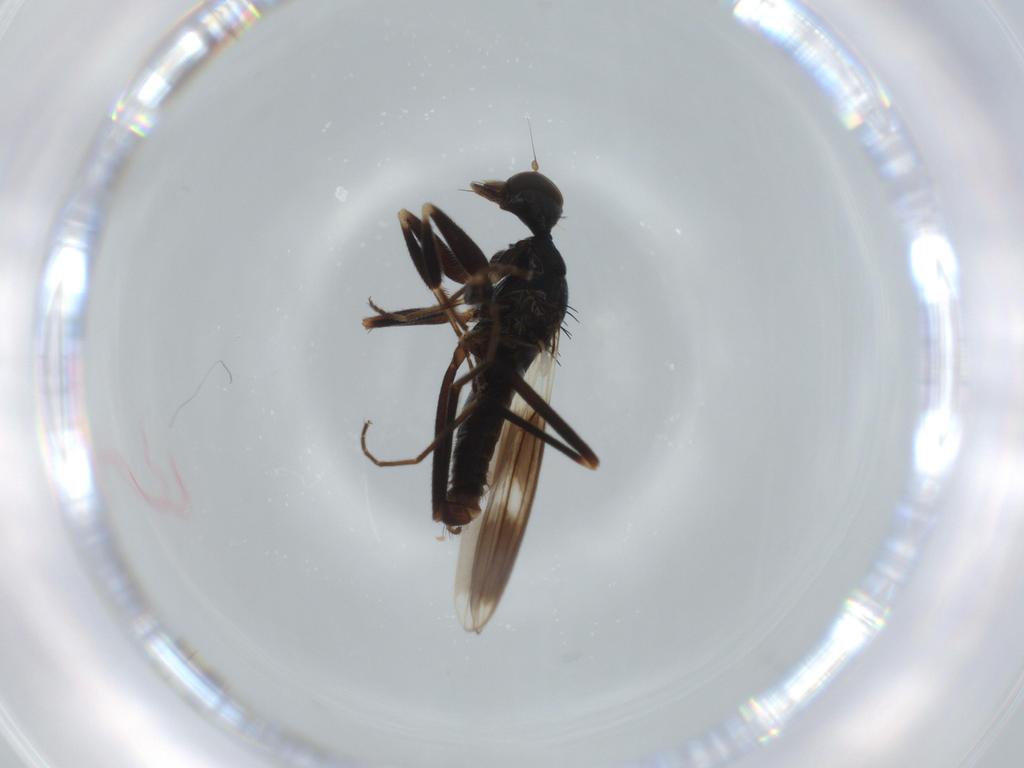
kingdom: Animalia
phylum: Arthropoda
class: Insecta
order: Diptera
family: Hybotidae
